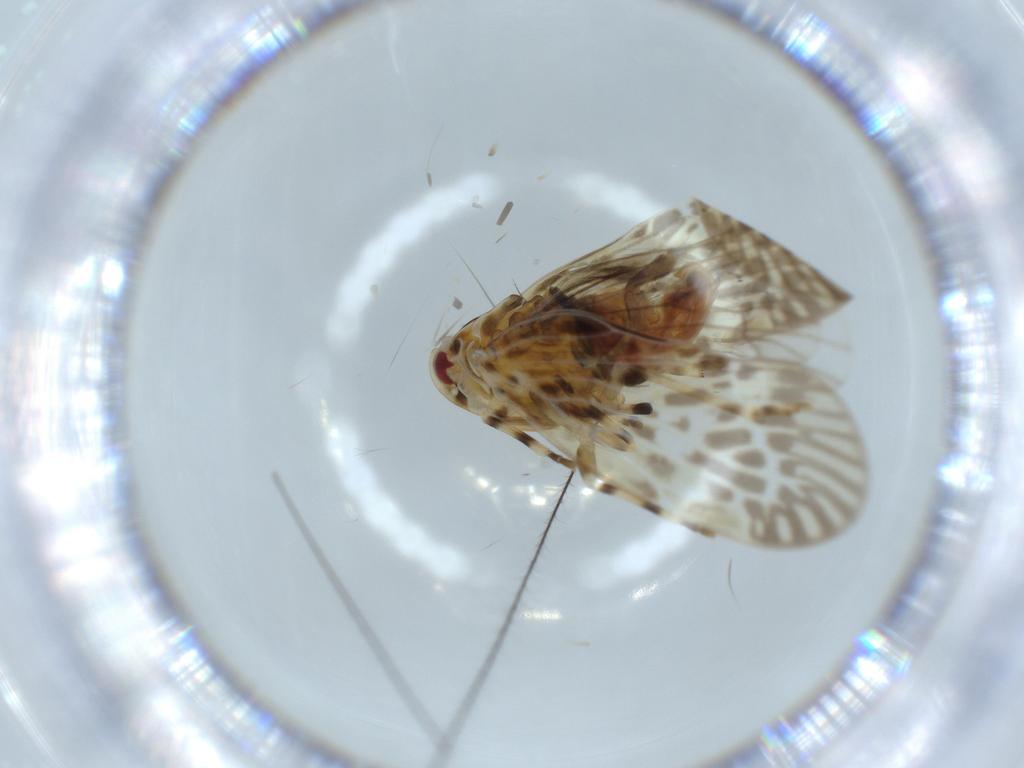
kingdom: Animalia
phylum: Arthropoda
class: Insecta
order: Hemiptera
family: Derbidae
